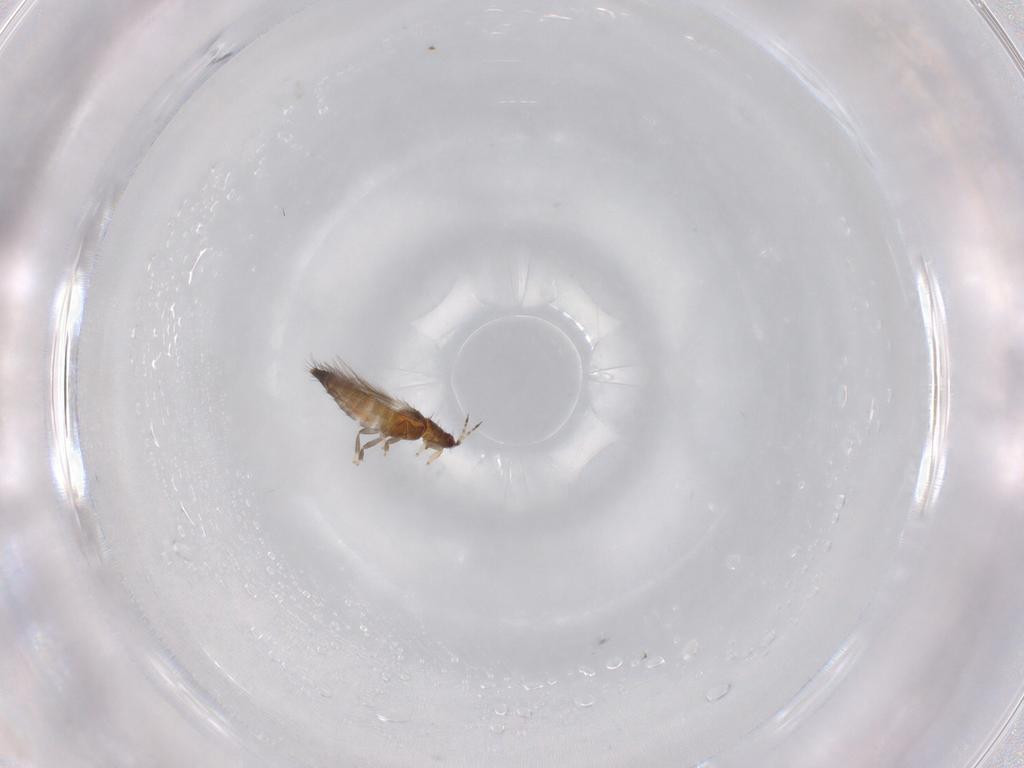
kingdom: Animalia
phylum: Arthropoda
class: Insecta
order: Thysanoptera
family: Thripidae
